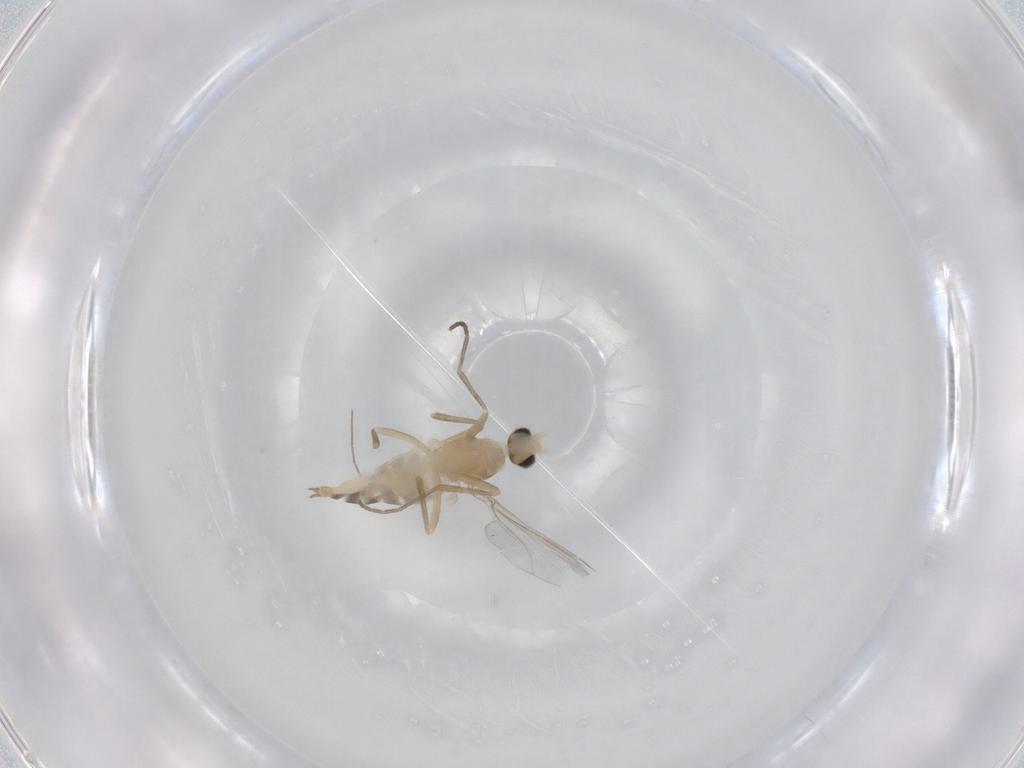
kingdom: Animalia
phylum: Arthropoda
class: Insecta
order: Diptera
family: Cecidomyiidae
